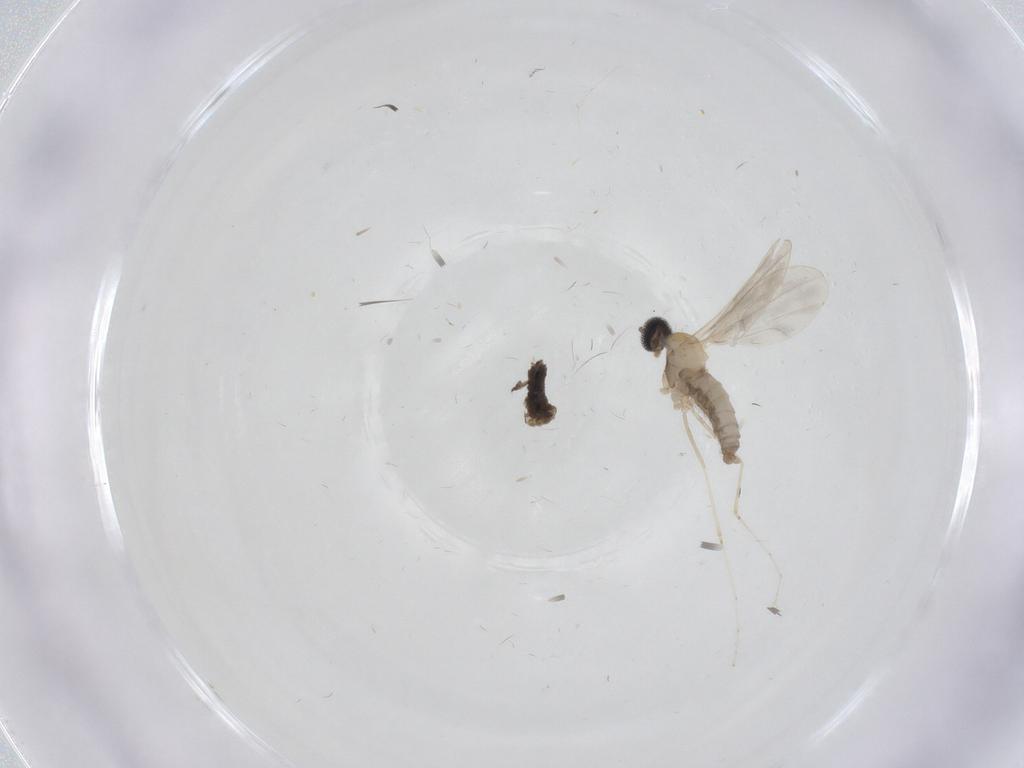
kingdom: Animalia
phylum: Arthropoda
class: Insecta
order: Diptera
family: Cecidomyiidae
